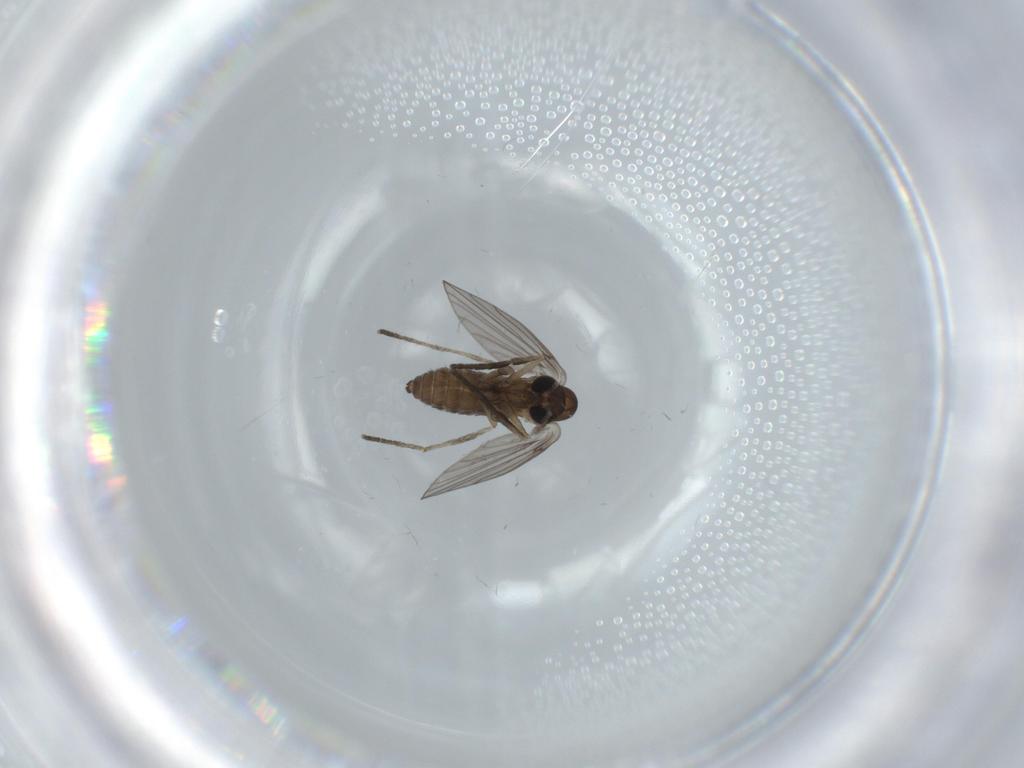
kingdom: Animalia
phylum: Arthropoda
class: Insecta
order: Diptera
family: Psychodidae
